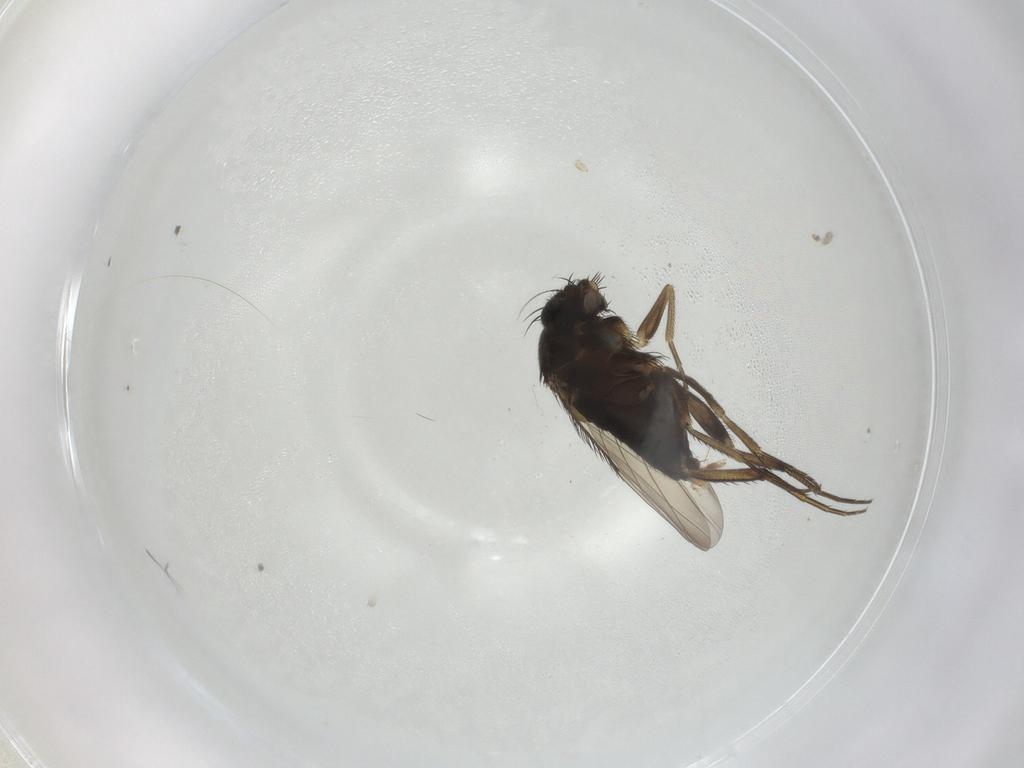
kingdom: Animalia
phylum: Arthropoda
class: Insecta
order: Diptera
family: Phoridae
